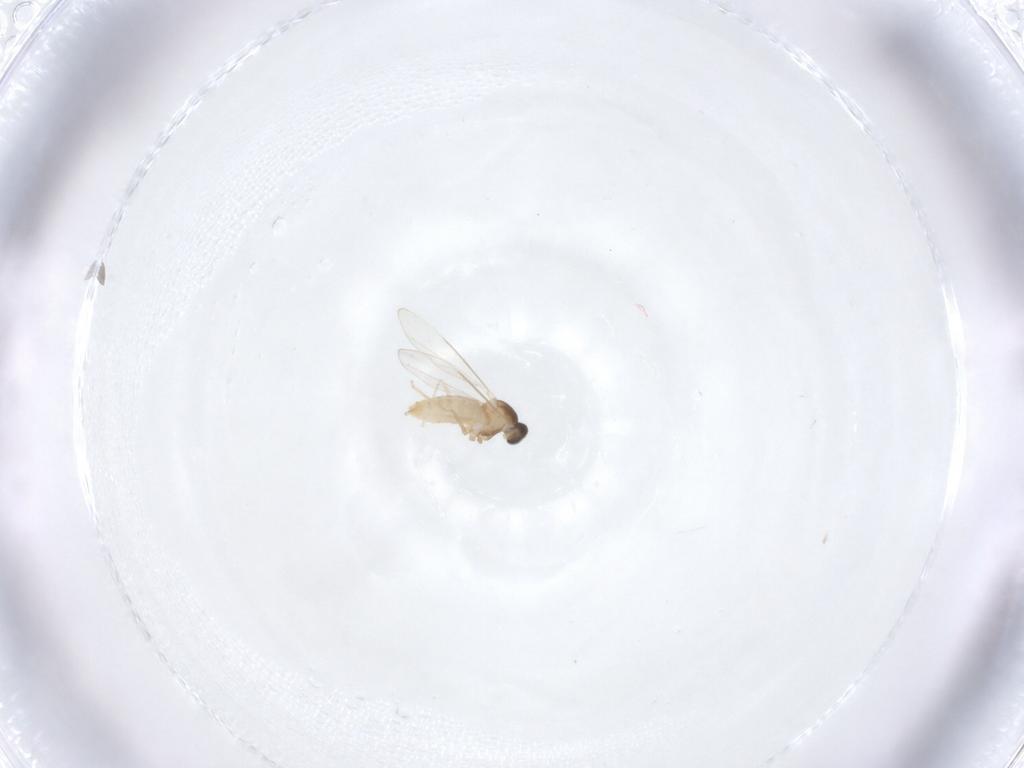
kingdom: Animalia
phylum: Arthropoda
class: Insecta
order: Diptera
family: Cecidomyiidae
